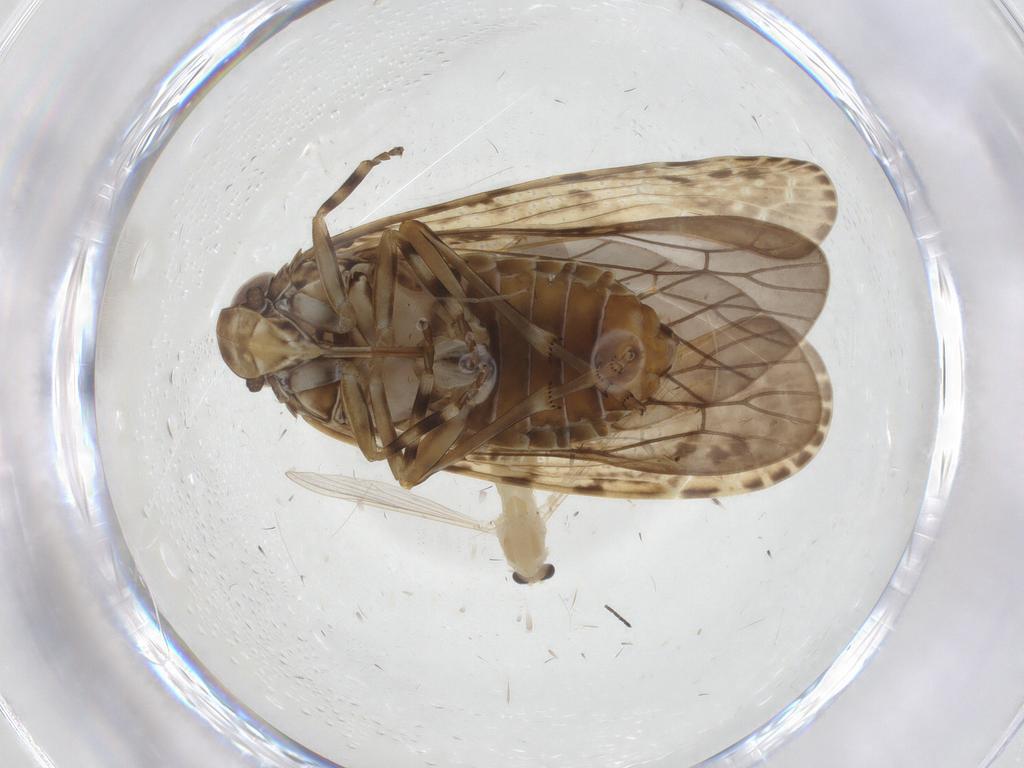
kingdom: Animalia
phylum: Arthropoda
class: Insecta
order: Diptera
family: Chironomidae
